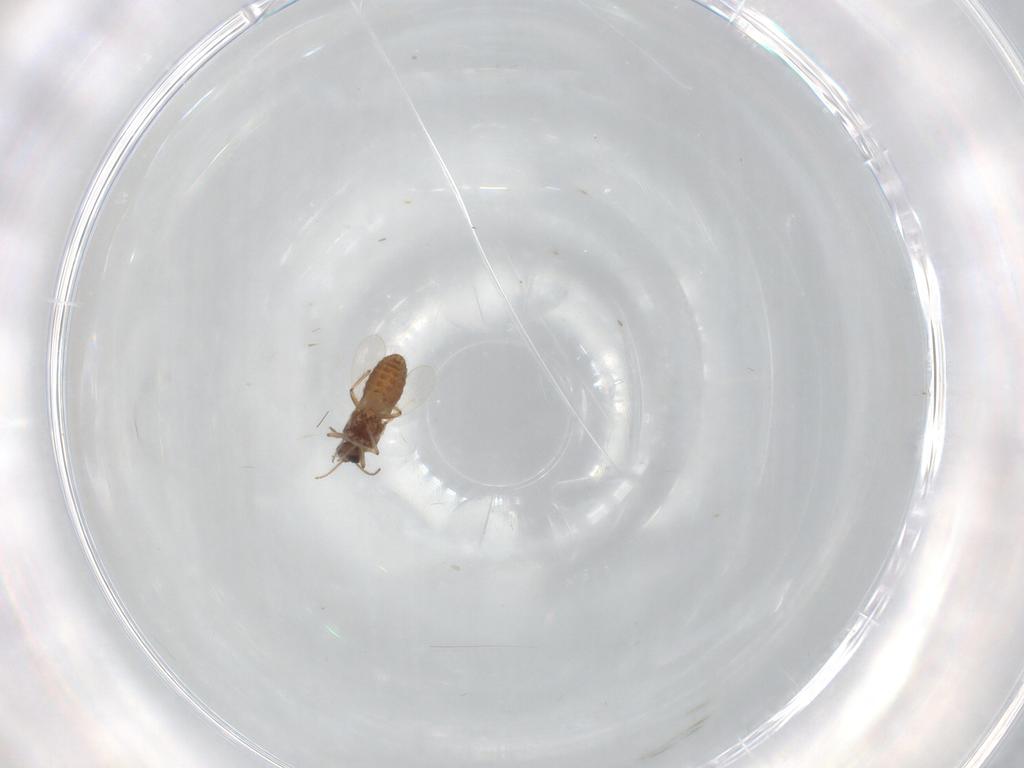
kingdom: Animalia
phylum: Arthropoda
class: Insecta
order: Diptera
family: Ceratopogonidae
